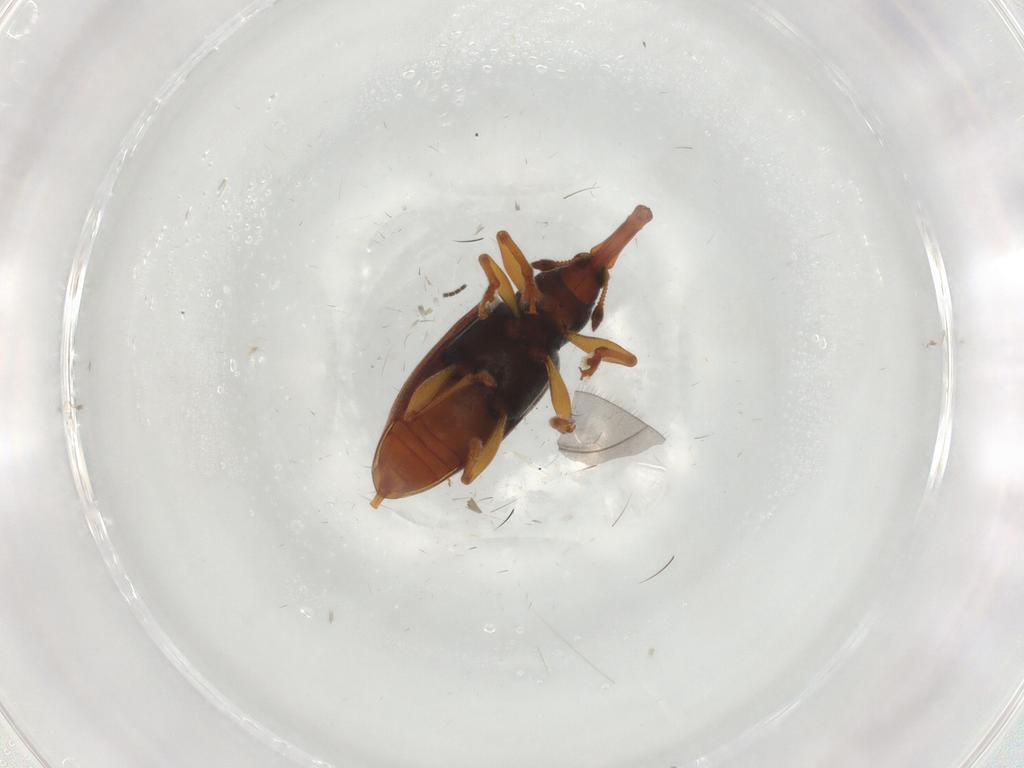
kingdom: Animalia
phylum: Arthropoda
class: Insecta
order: Coleoptera
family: Curculionidae
